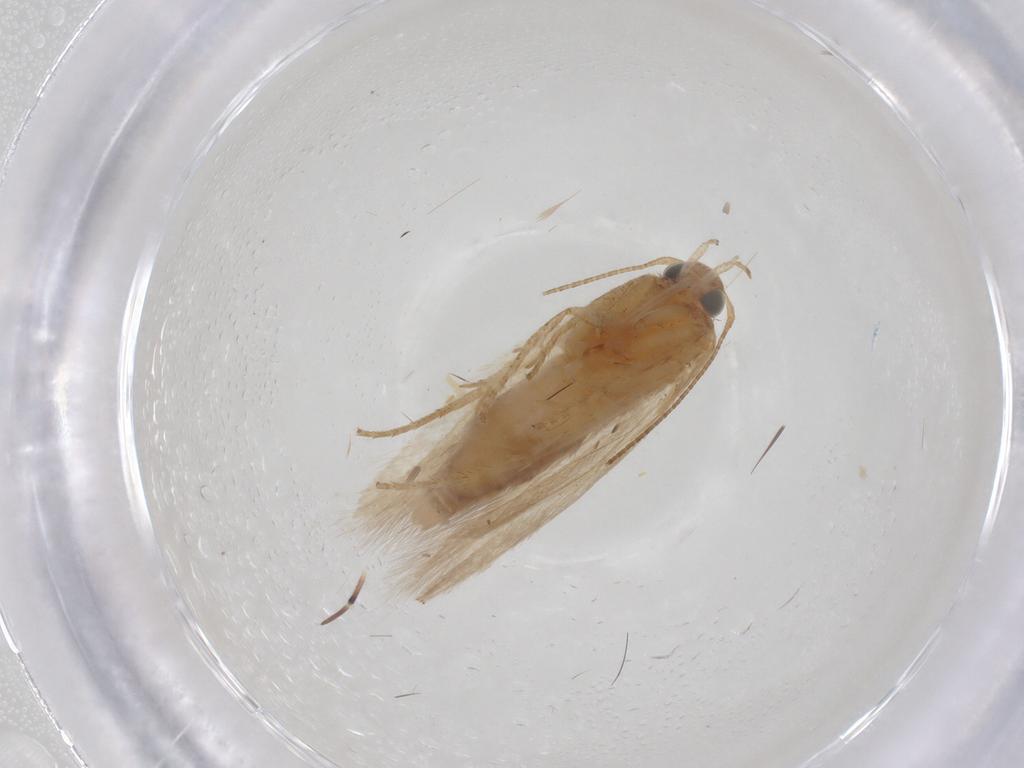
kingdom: Animalia
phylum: Arthropoda
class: Insecta
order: Lepidoptera
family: Gelechiidae
